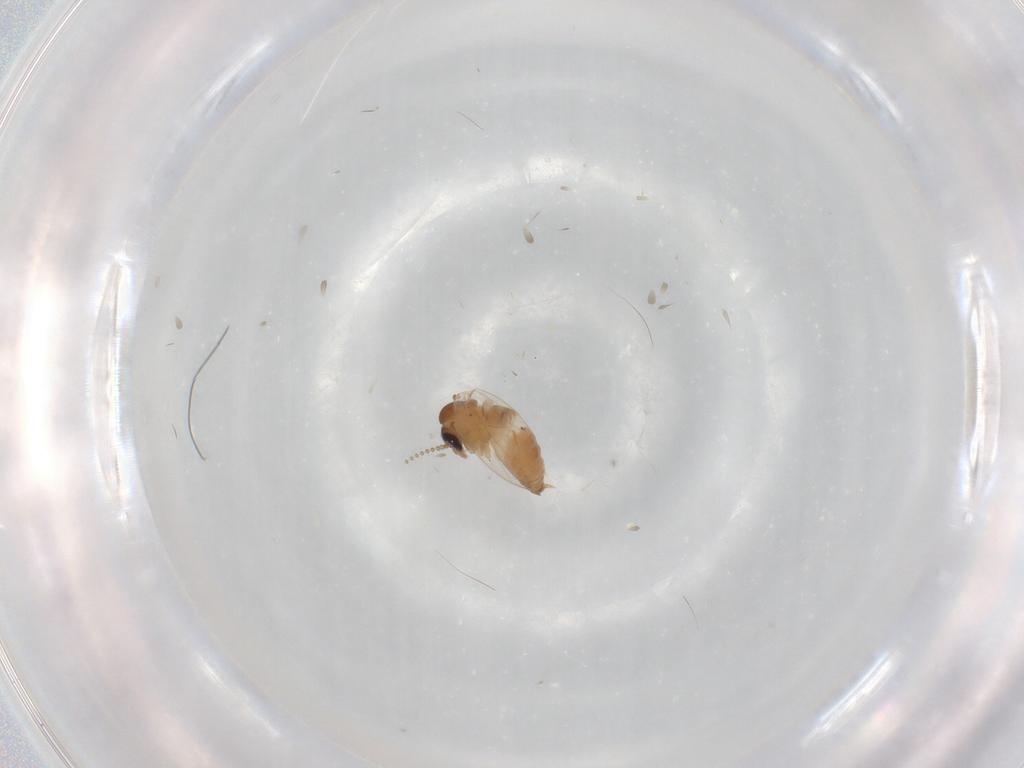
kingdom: Animalia
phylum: Arthropoda
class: Insecta
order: Diptera
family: Psychodidae
